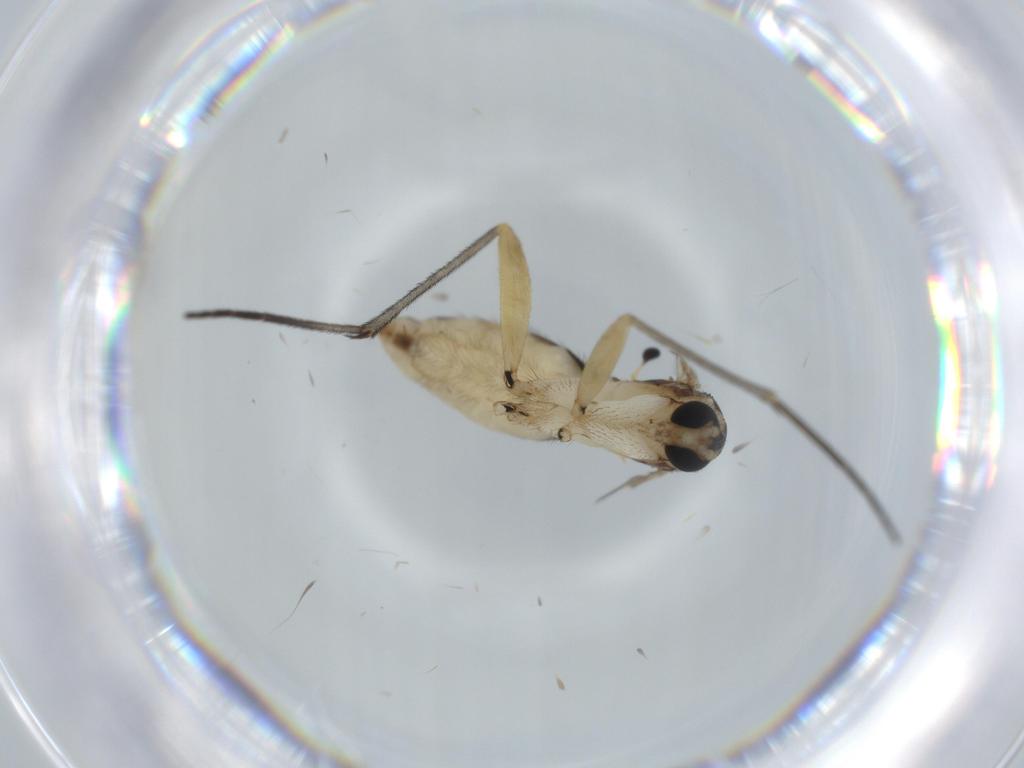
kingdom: Animalia
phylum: Arthropoda
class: Insecta
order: Diptera
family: Sciaridae
